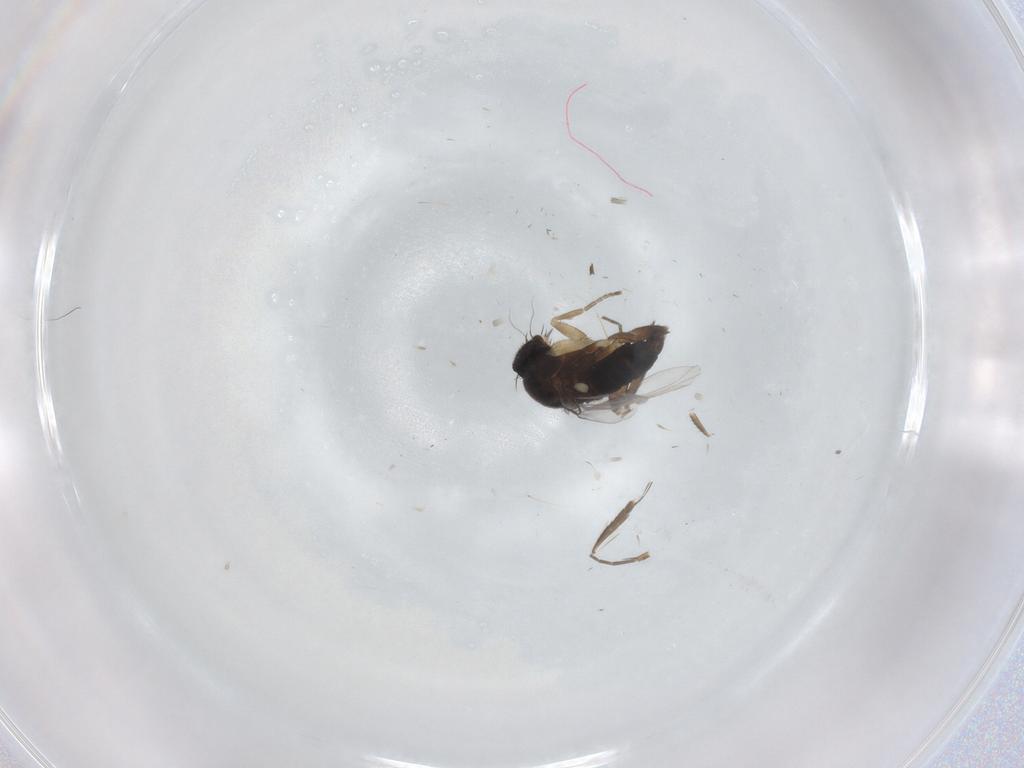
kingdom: Animalia
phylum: Arthropoda
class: Insecta
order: Diptera
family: Phoridae
